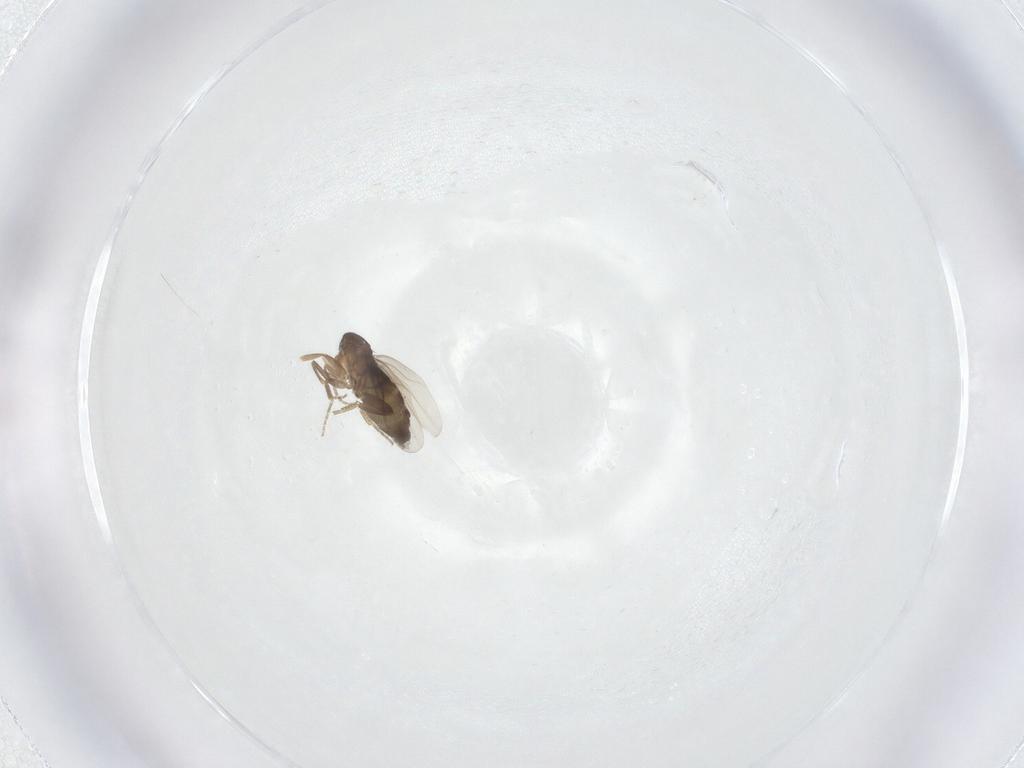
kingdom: Animalia
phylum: Arthropoda
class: Insecta
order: Diptera
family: Phoridae
